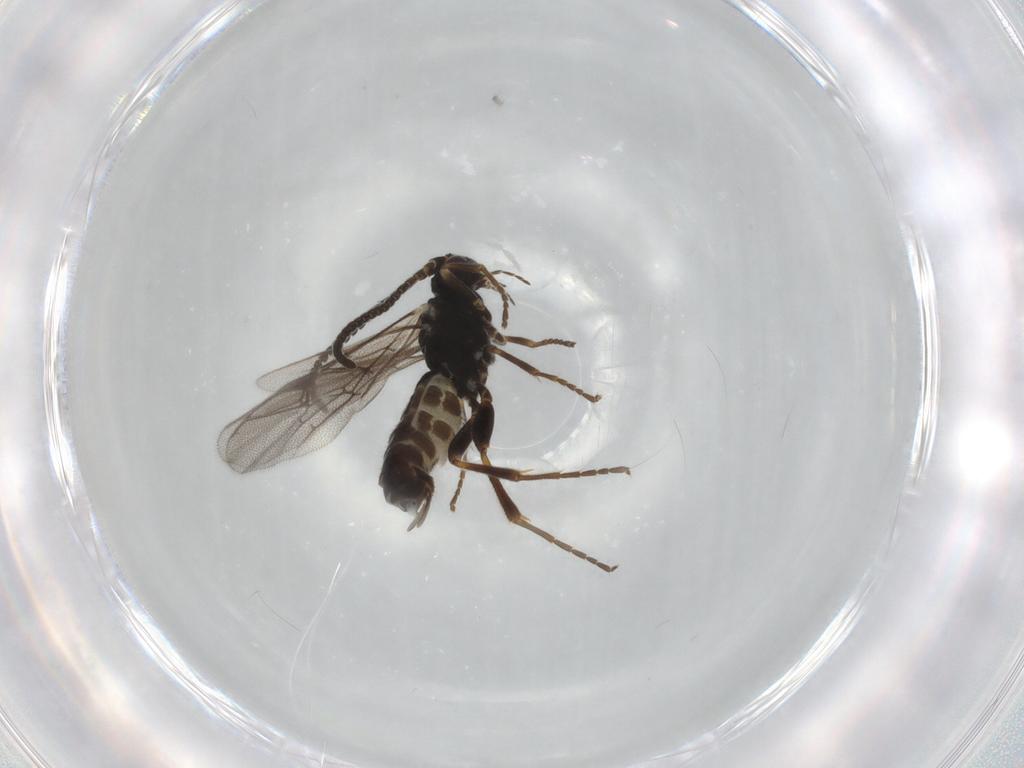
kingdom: Animalia
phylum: Arthropoda
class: Insecta
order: Hymenoptera
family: Ichneumonidae
